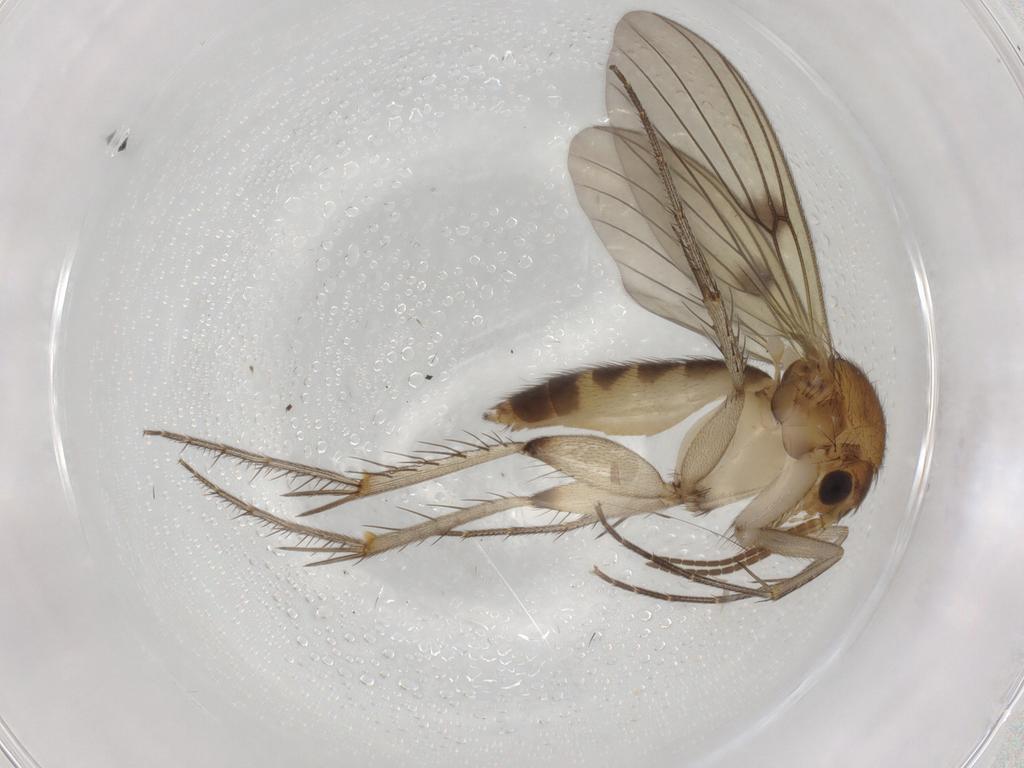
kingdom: Animalia
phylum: Arthropoda
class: Insecta
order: Diptera
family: Mycetophilidae
